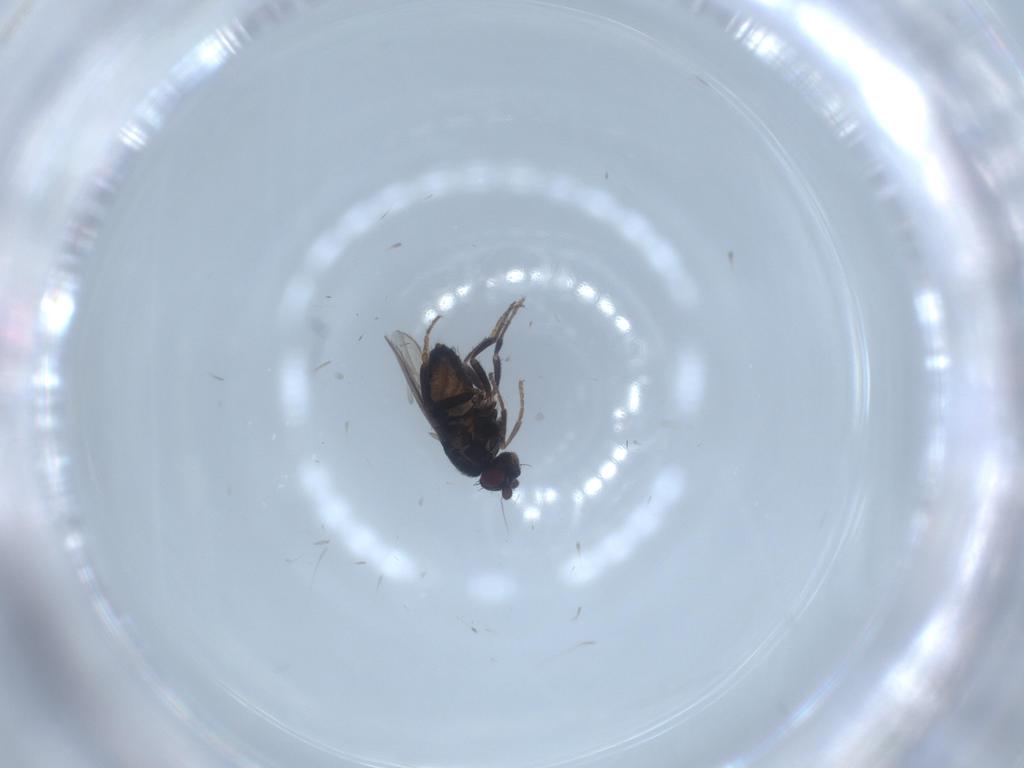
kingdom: Animalia
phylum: Arthropoda
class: Insecta
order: Diptera
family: Sphaeroceridae
